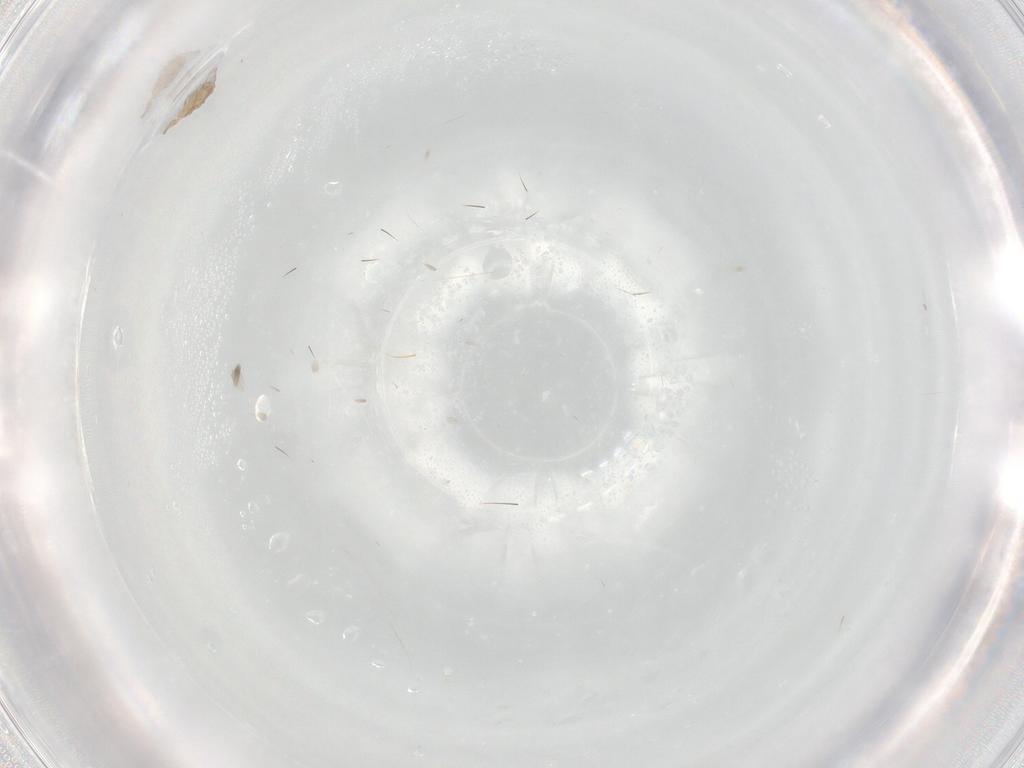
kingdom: Animalia
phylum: Arthropoda
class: Arachnida
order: Trombidiformes
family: Erythraeidae
